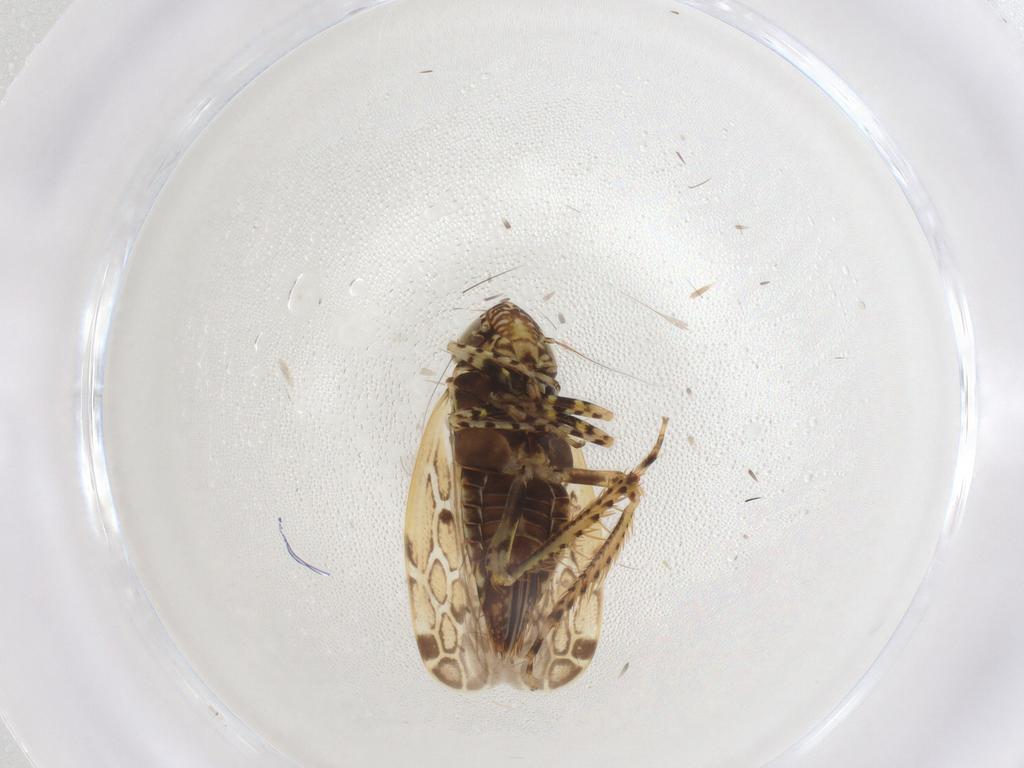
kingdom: Animalia
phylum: Arthropoda
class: Insecta
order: Hemiptera
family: Cicadellidae
